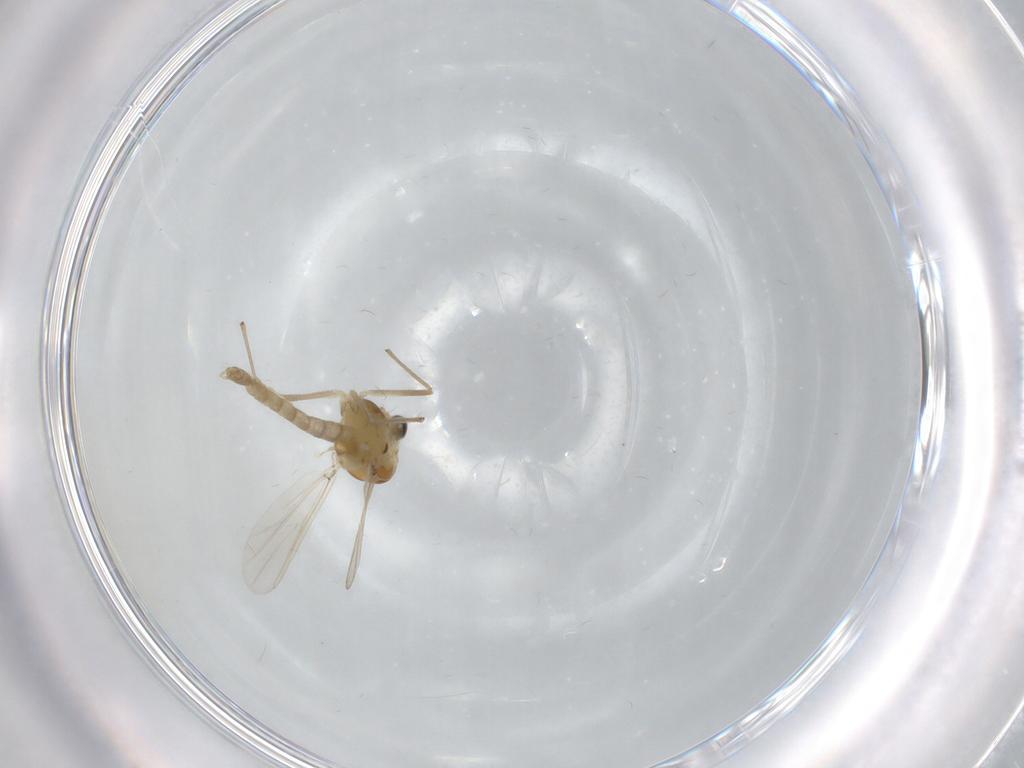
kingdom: Animalia
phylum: Arthropoda
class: Insecta
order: Diptera
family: Chironomidae
